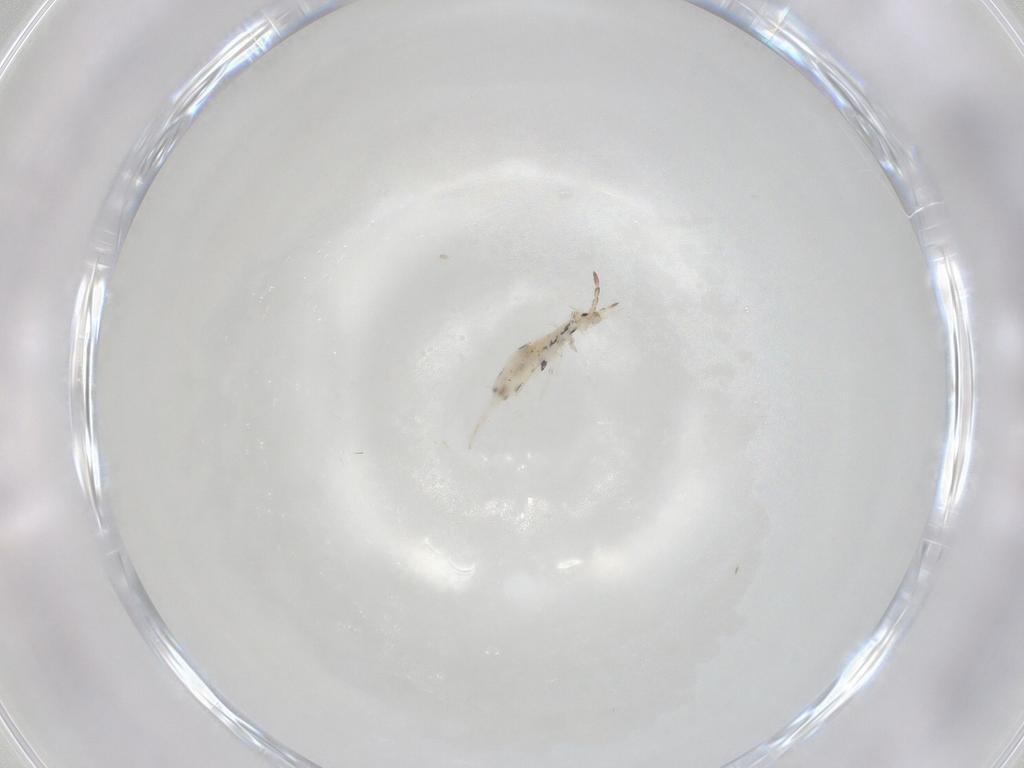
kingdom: Animalia
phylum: Arthropoda
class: Collembola
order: Entomobryomorpha
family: Entomobryidae
